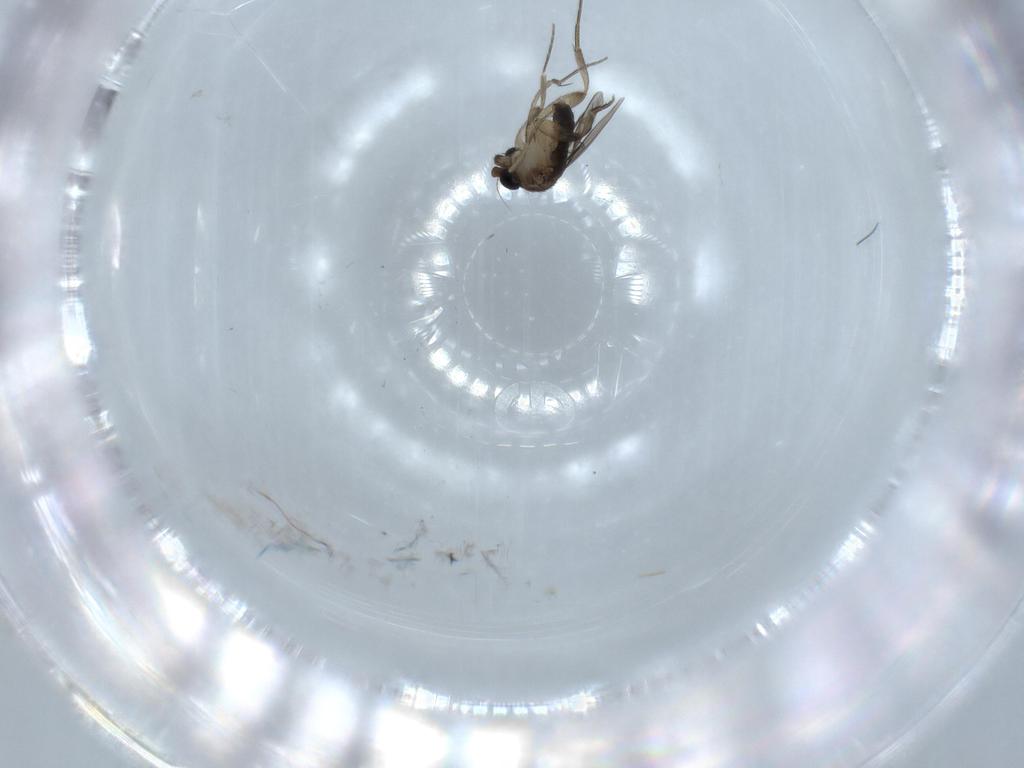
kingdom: Animalia
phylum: Arthropoda
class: Insecta
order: Diptera
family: Phoridae
